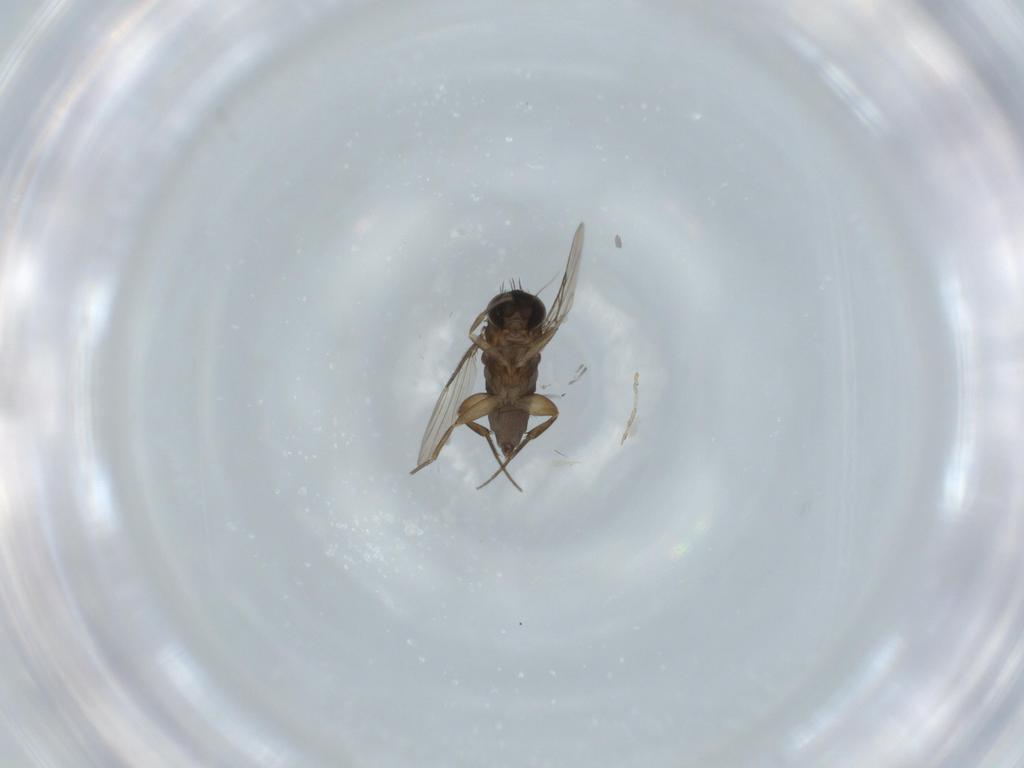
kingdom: Animalia
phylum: Arthropoda
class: Insecta
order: Diptera
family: Phoridae
